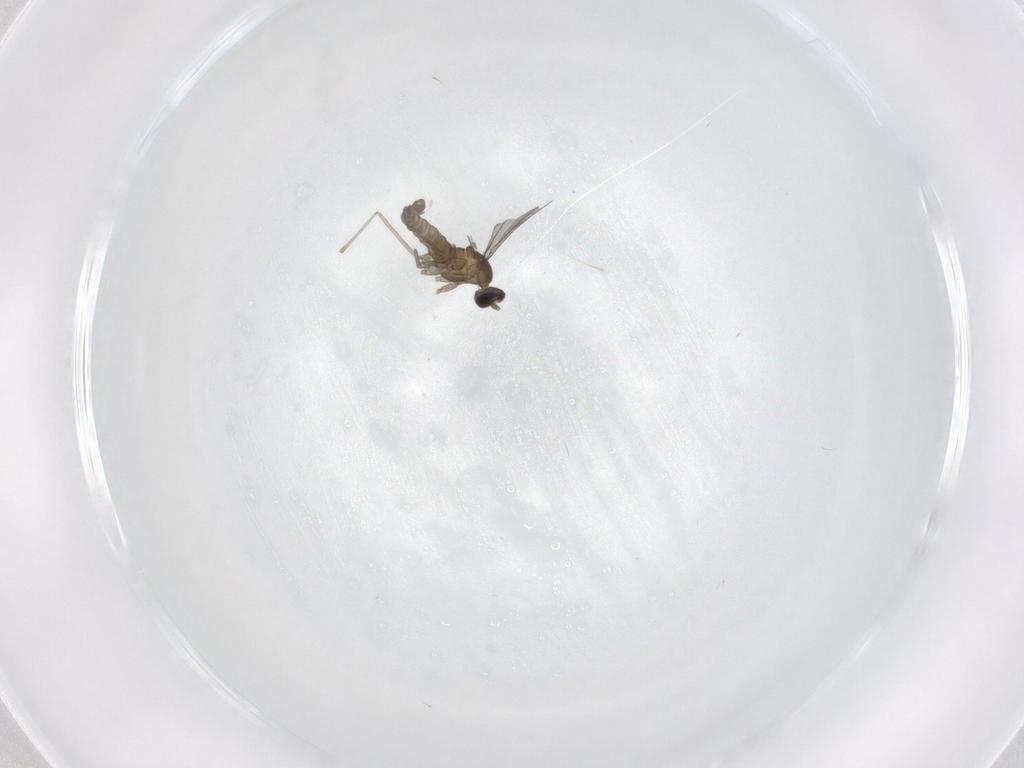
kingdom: Animalia
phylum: Arthropoda
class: Insecta
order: Diptera
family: Cecidomyiidae
